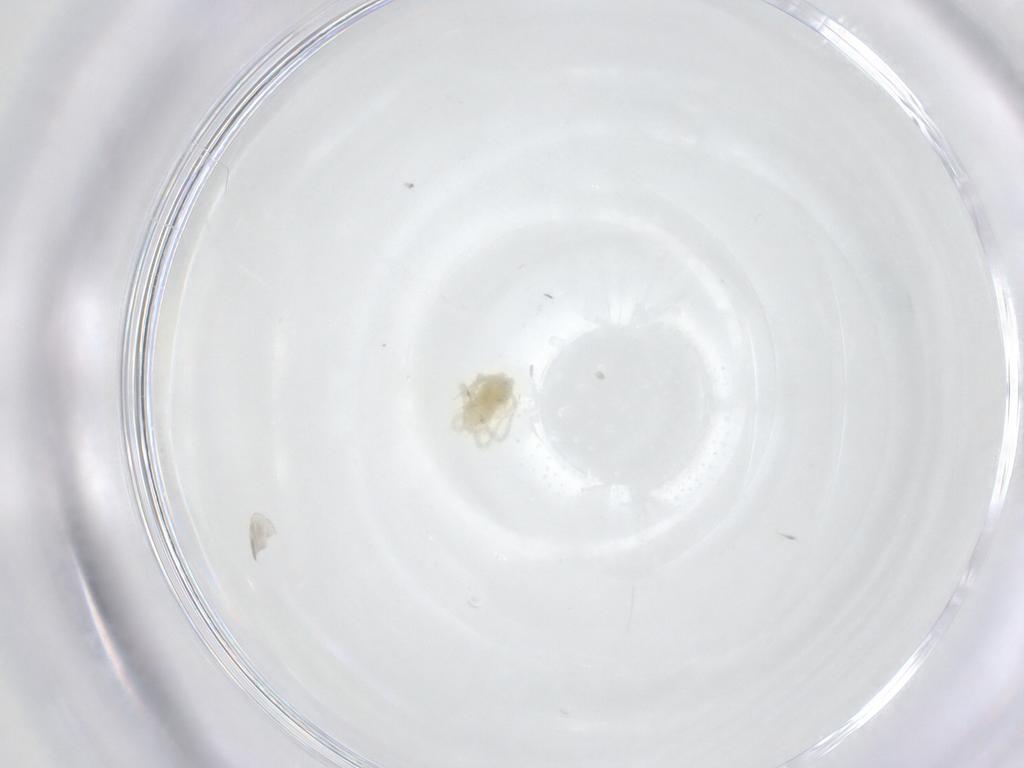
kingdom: Animalia
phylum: Arthropoda
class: Arachnida
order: Trombidiformes
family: Anystidae
